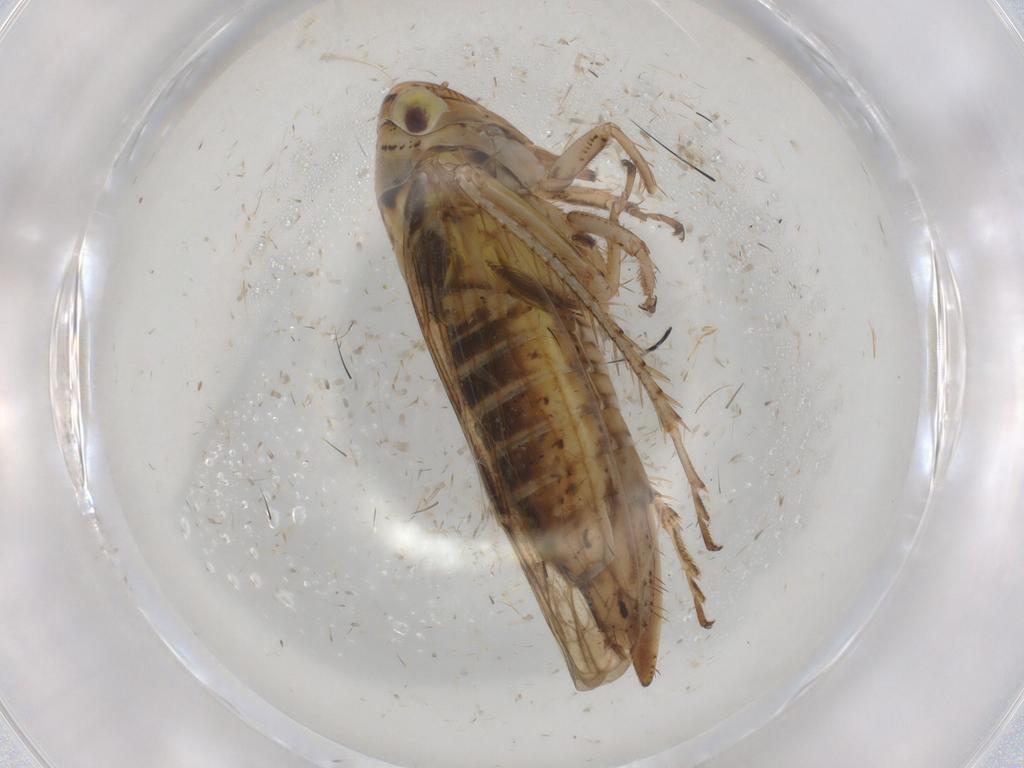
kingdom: Animalia
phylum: Arthropoda
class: Insecta
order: Hemiptera
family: Cicadellidae
